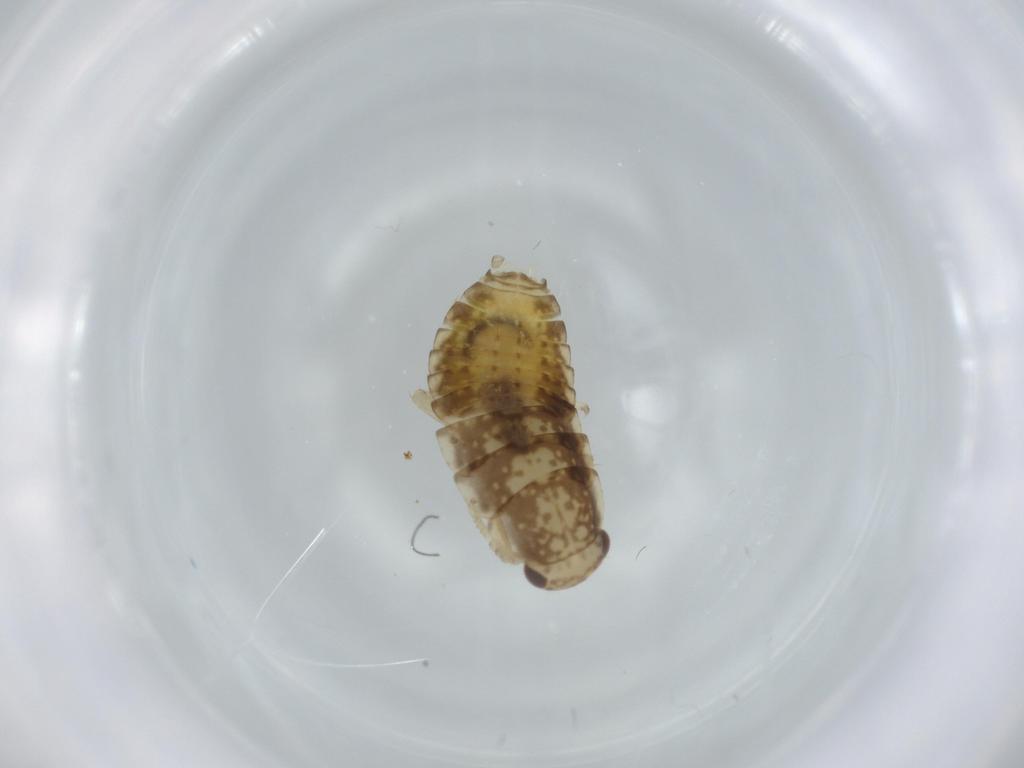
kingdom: Animalia
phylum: Arthropoda
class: Insecta
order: Blattodea
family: Ectobiidae
